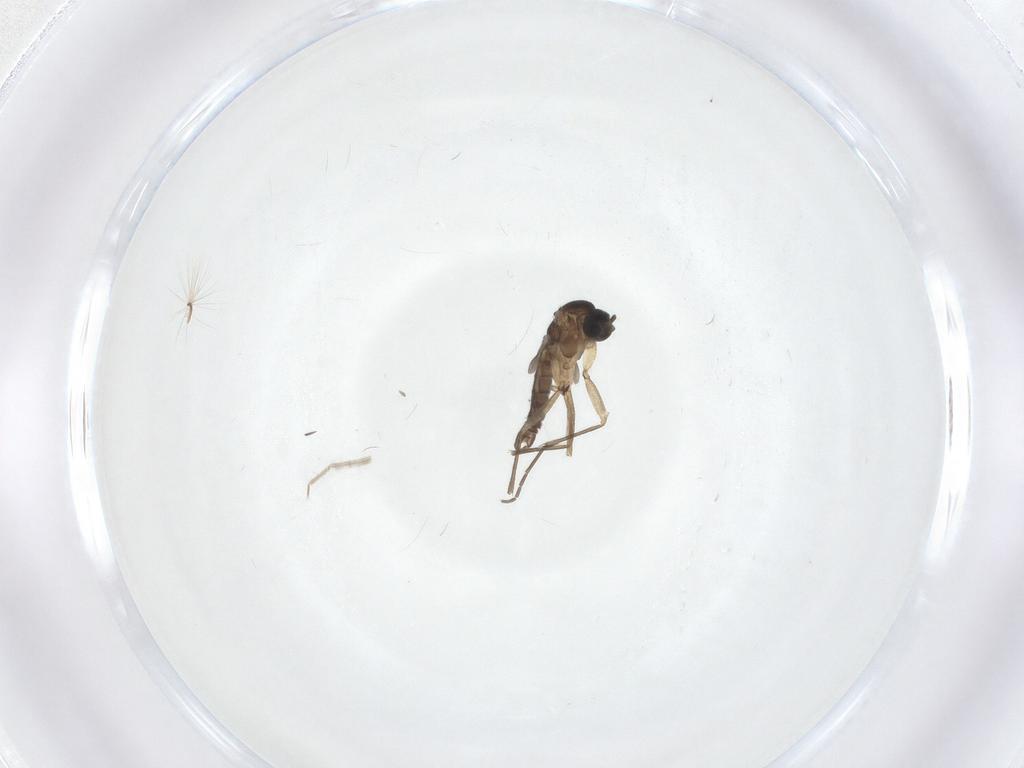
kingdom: Animalia
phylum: Arthropoda
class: Insecta
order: Diptera
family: Sciaridae
